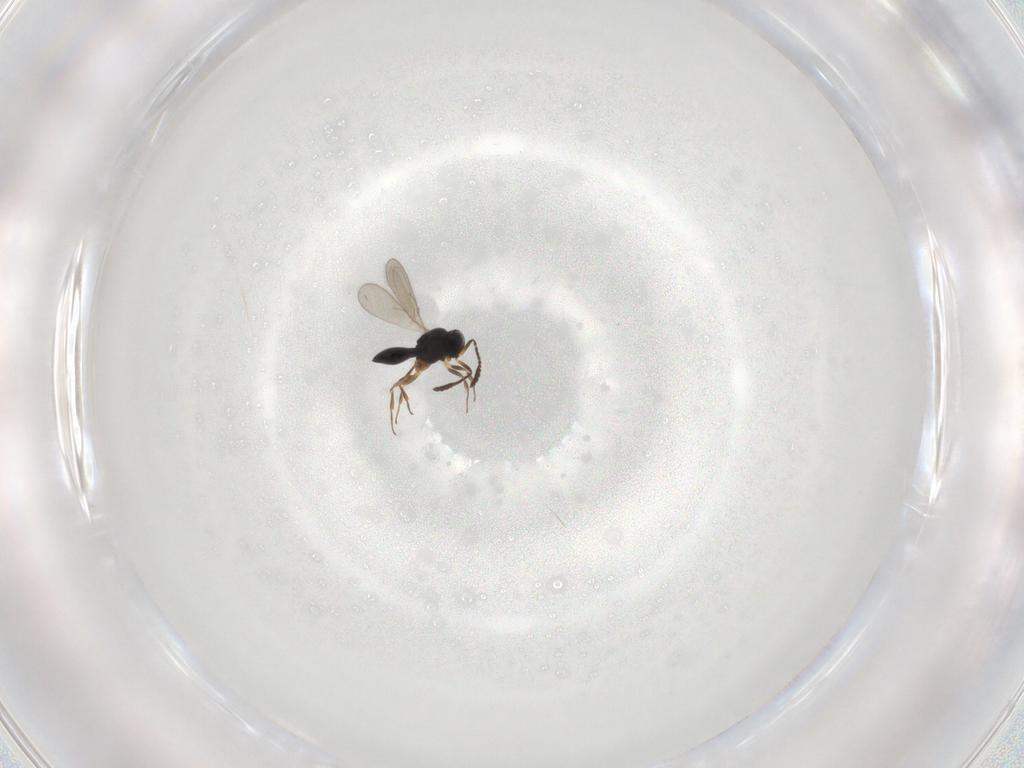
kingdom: Animalia
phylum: Arthropoda
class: Insecta
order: Hymenoptera
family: Scelionidae
